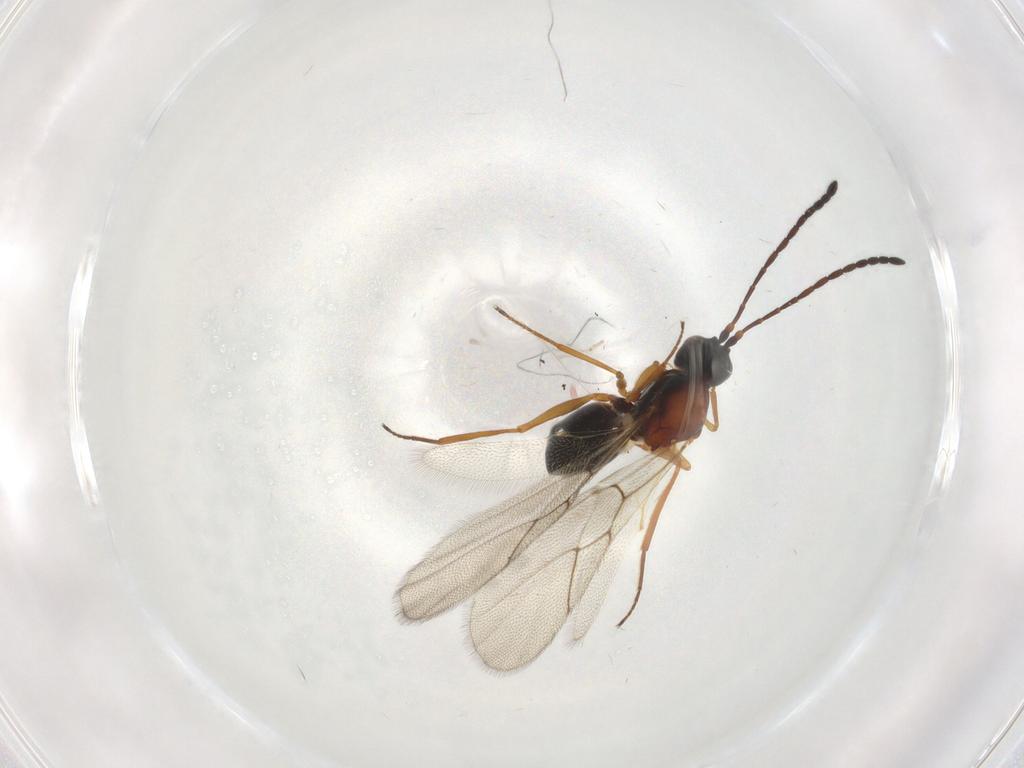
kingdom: Animalia
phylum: Arthropoda
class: Insecta
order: Hymenoptera
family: Figitidae
